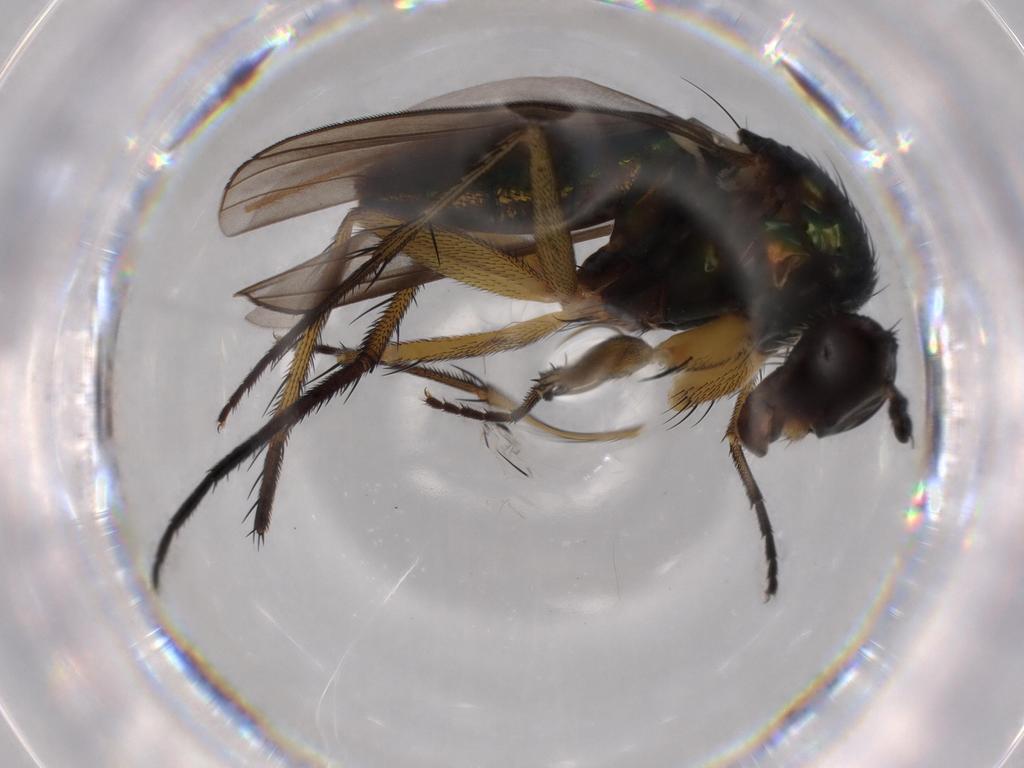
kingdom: Animalia
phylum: Arthropoda
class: Insecta
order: Diptera
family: Dolichopodidae
